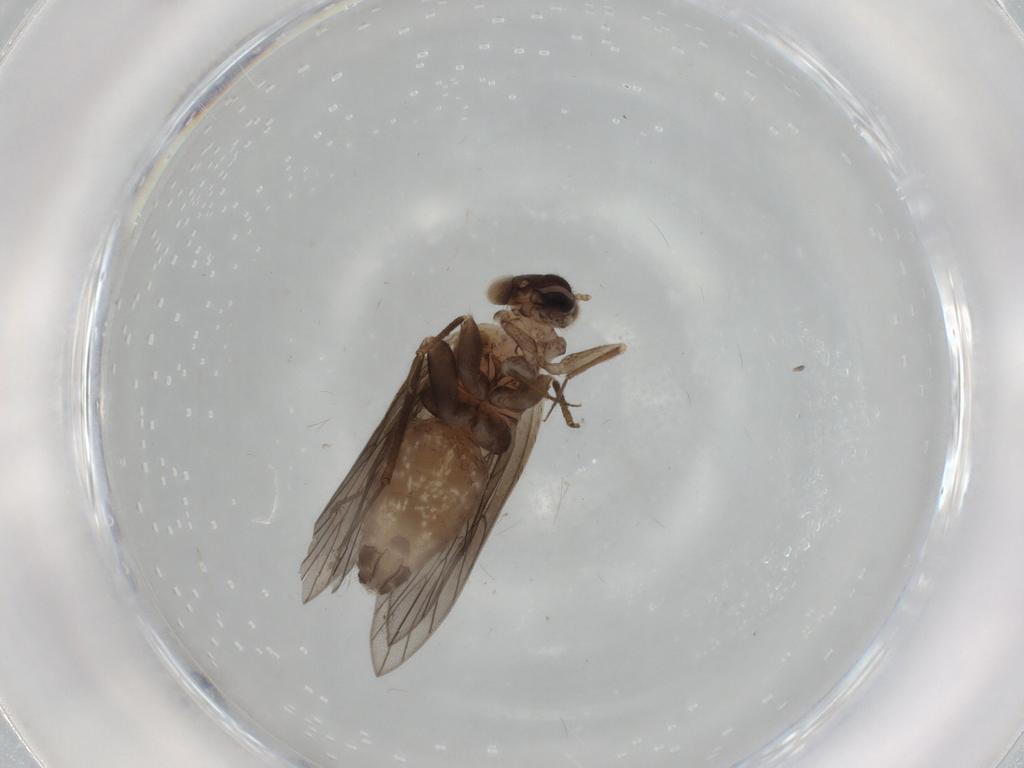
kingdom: Animalia
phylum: Arthropoda
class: Insecta
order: Psocodea
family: Lepidopsocidae
